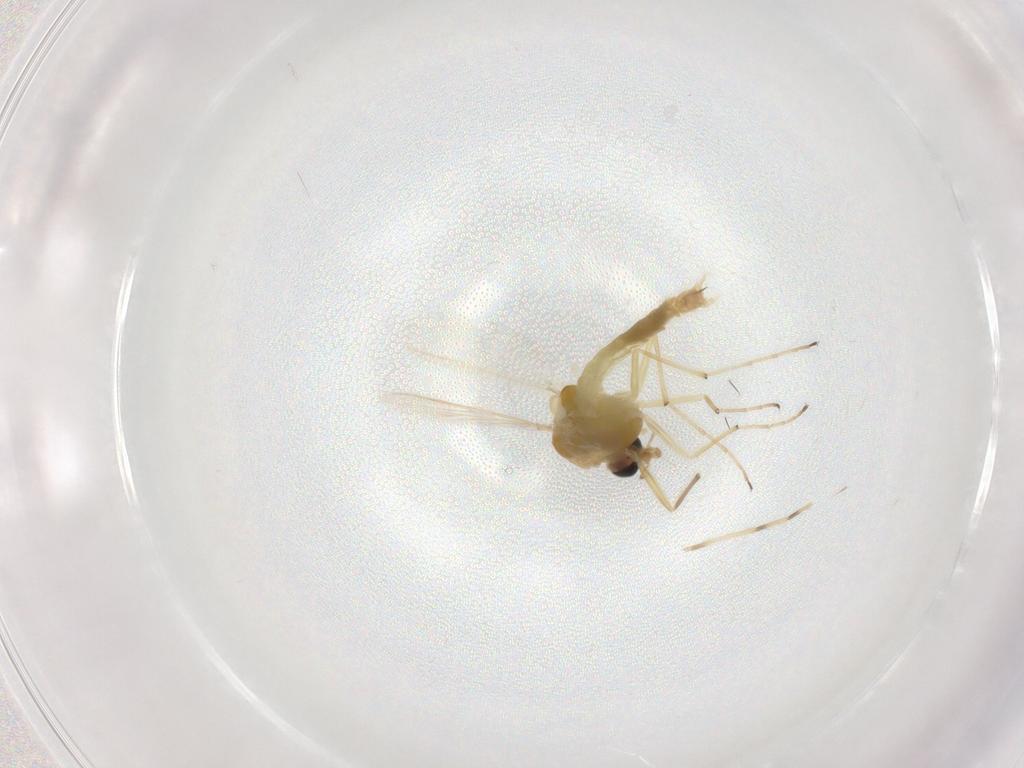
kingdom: Animalia
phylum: Arthropoda
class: Insecta
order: Diptera
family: Chironomidae
